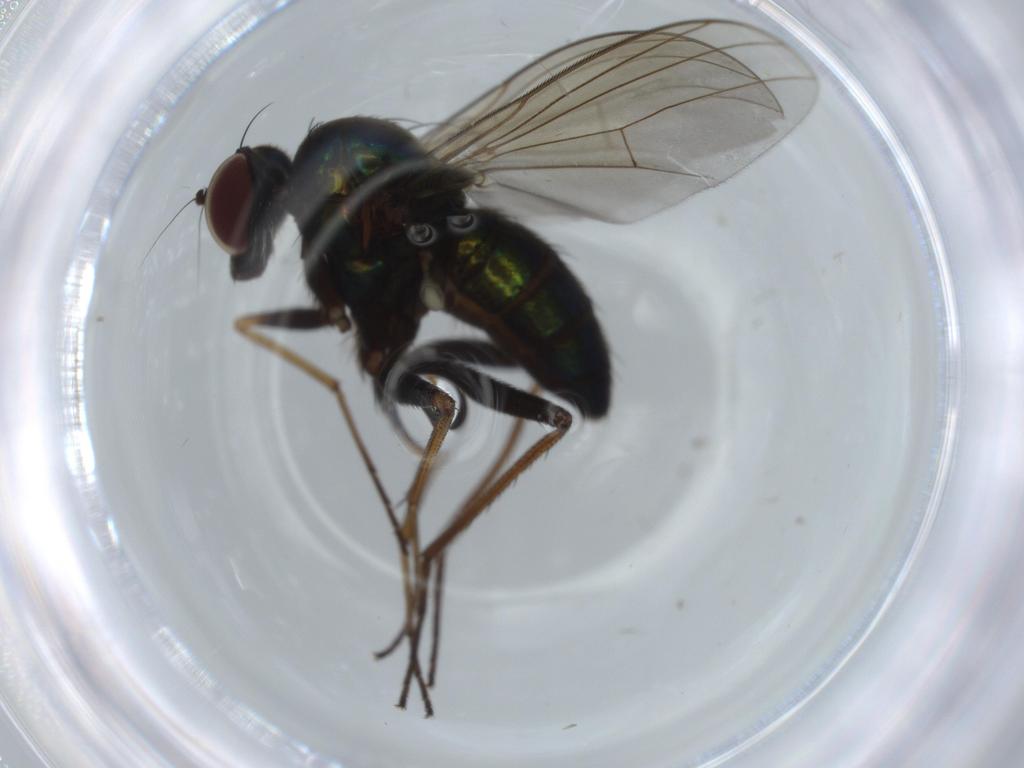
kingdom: Animalia
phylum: Arthropoda
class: Insecta
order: Diptera
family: Dolichopodidae
